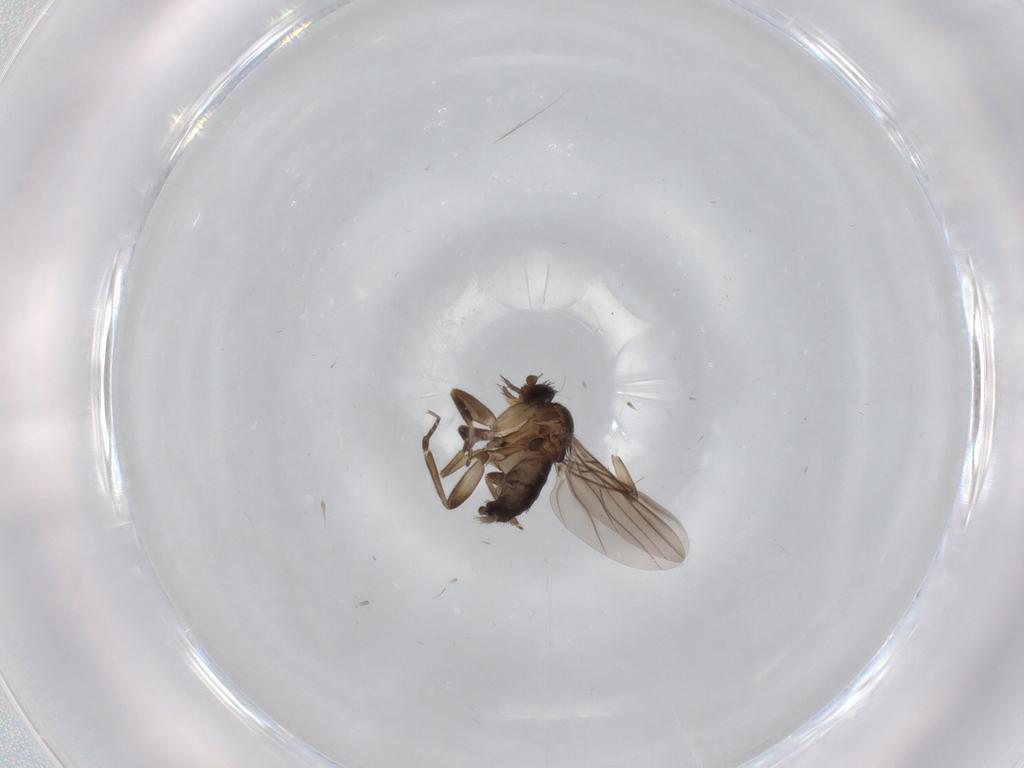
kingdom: Animalia
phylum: Arthropoda
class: Insecta
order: Diptera
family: Phoridae
